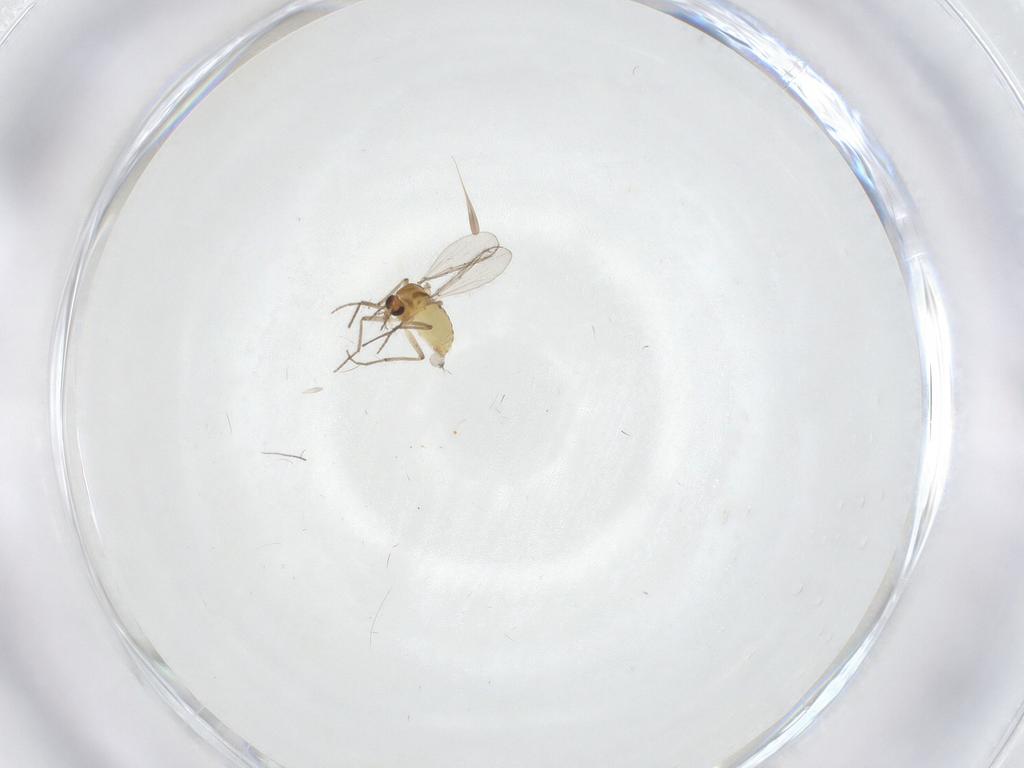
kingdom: Animalia
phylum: Arthropoda
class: Insecta
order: Diptera
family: Chironomidae
